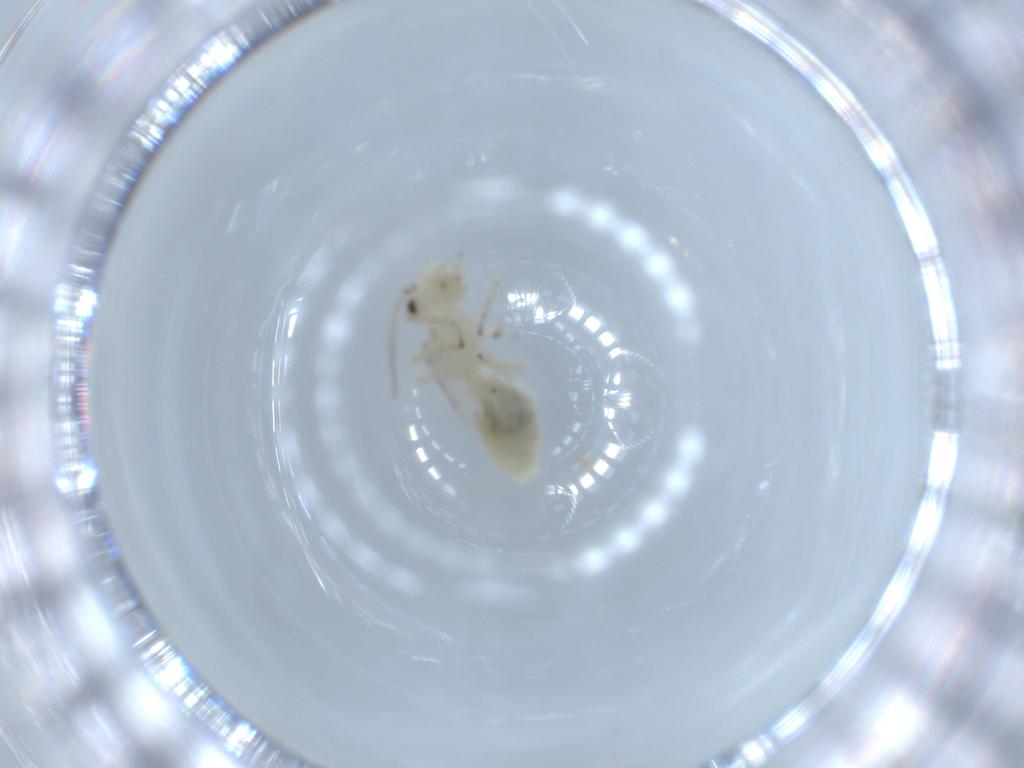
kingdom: Animalia
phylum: Arthropoda
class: Insecta
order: Psocodea
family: Caeciliusidae
